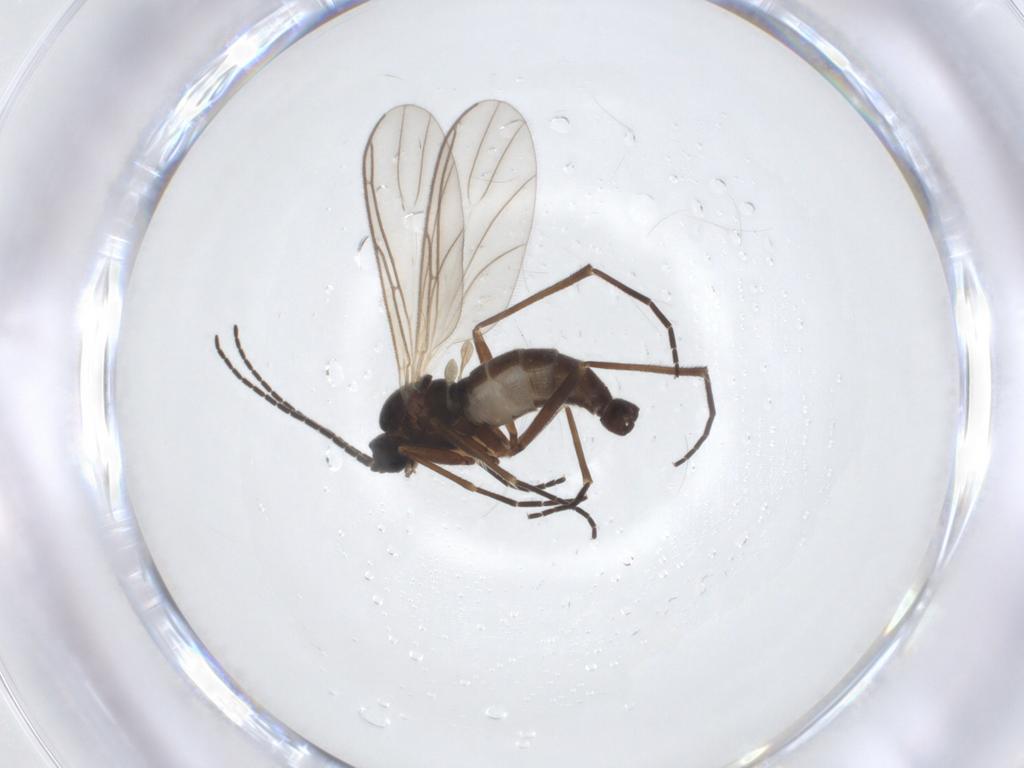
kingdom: Animalia
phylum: Arthropoda
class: Insecta
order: Diptera
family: Sciaridae
